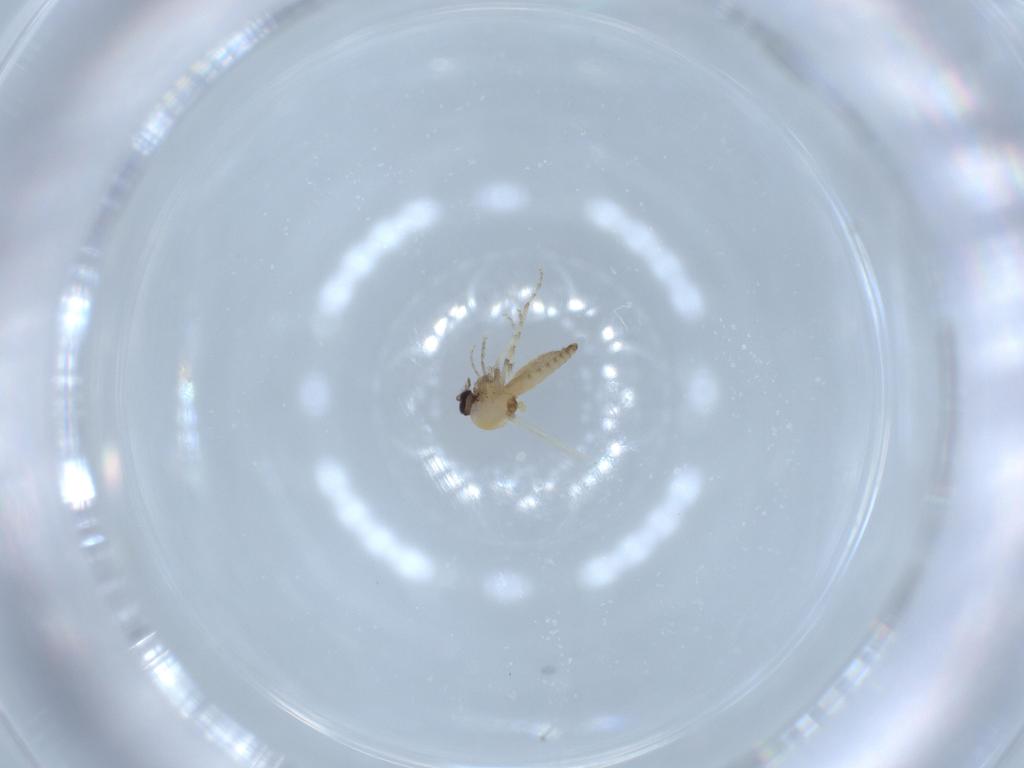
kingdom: Animalia
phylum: Arthropoda
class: Insecta
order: Diptera
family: Ceratopogonidae
